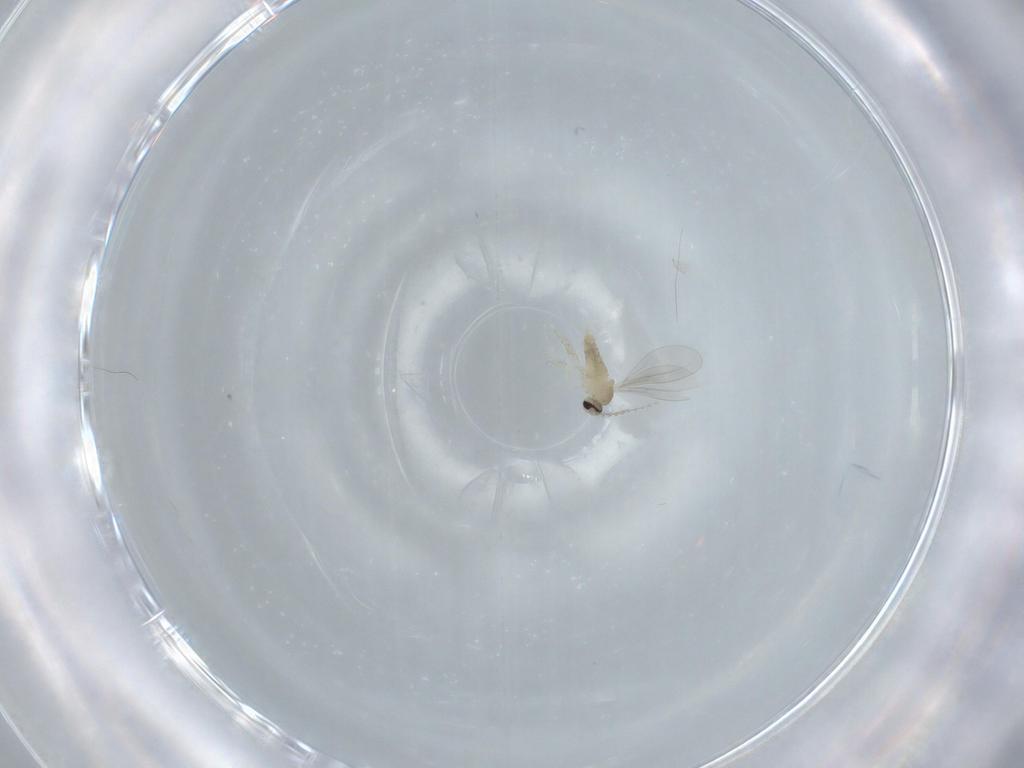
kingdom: Animalia
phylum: Arthropoda
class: Insecta
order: Diptera
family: Cecidomyiidae
